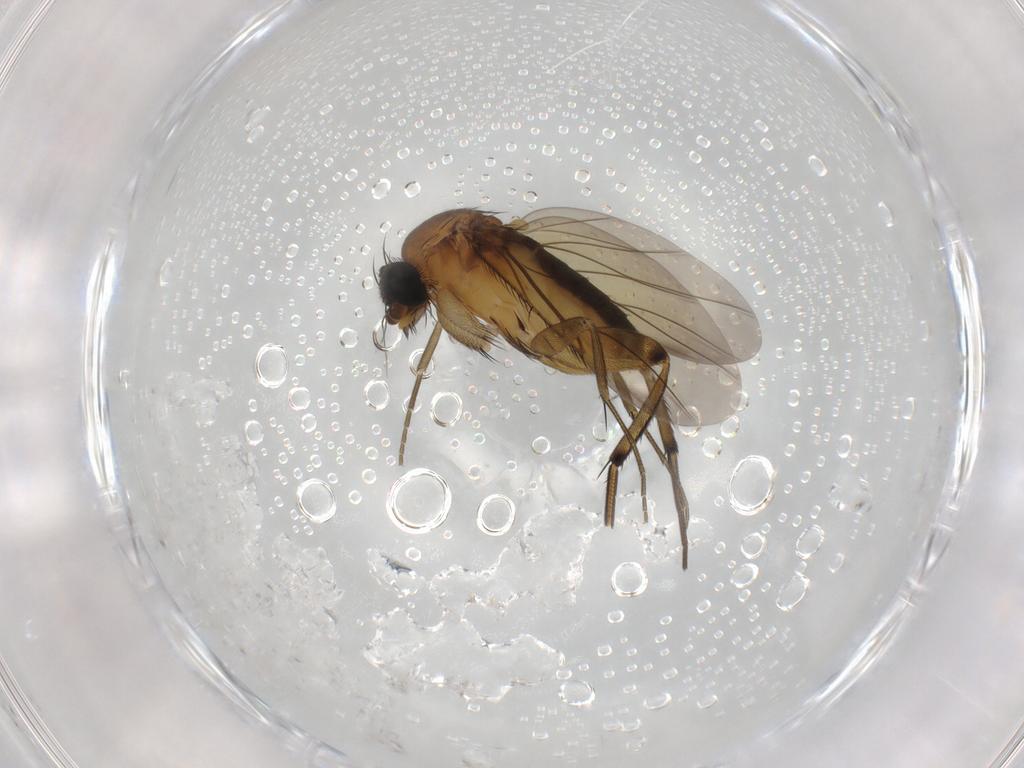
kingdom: Animalia
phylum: Arthropoda
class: Insecta
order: Diptera
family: Phoridae
